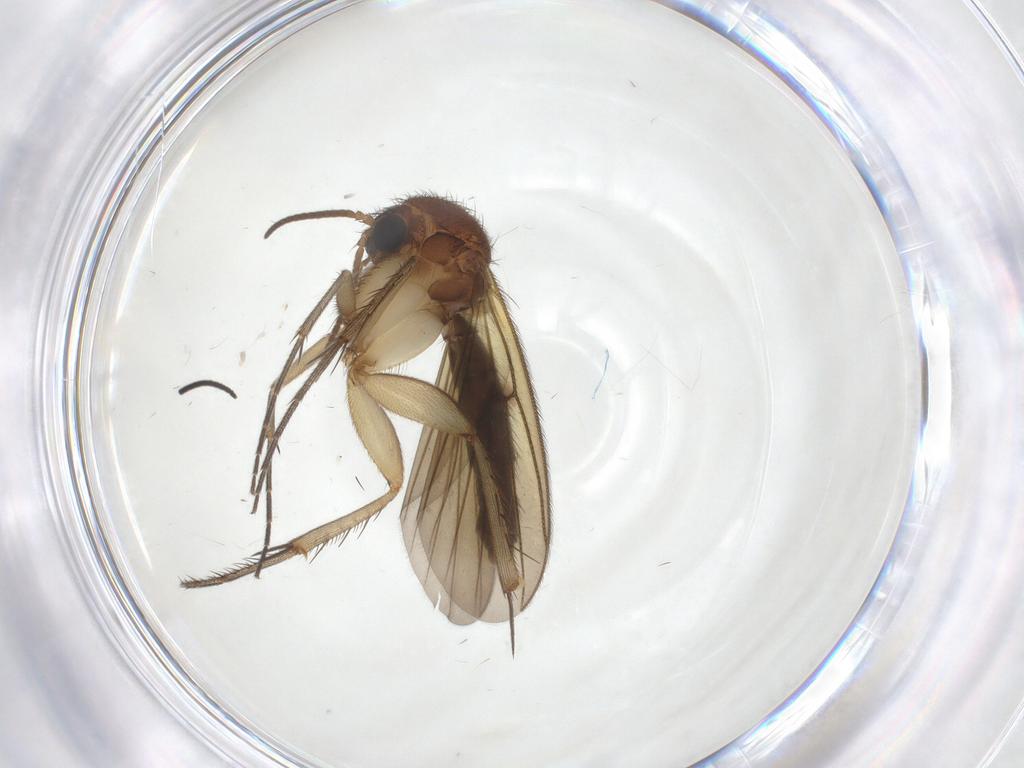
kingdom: Animalia
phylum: Arthropoda
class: Insecta
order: Diptera
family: Mycetophilidae
